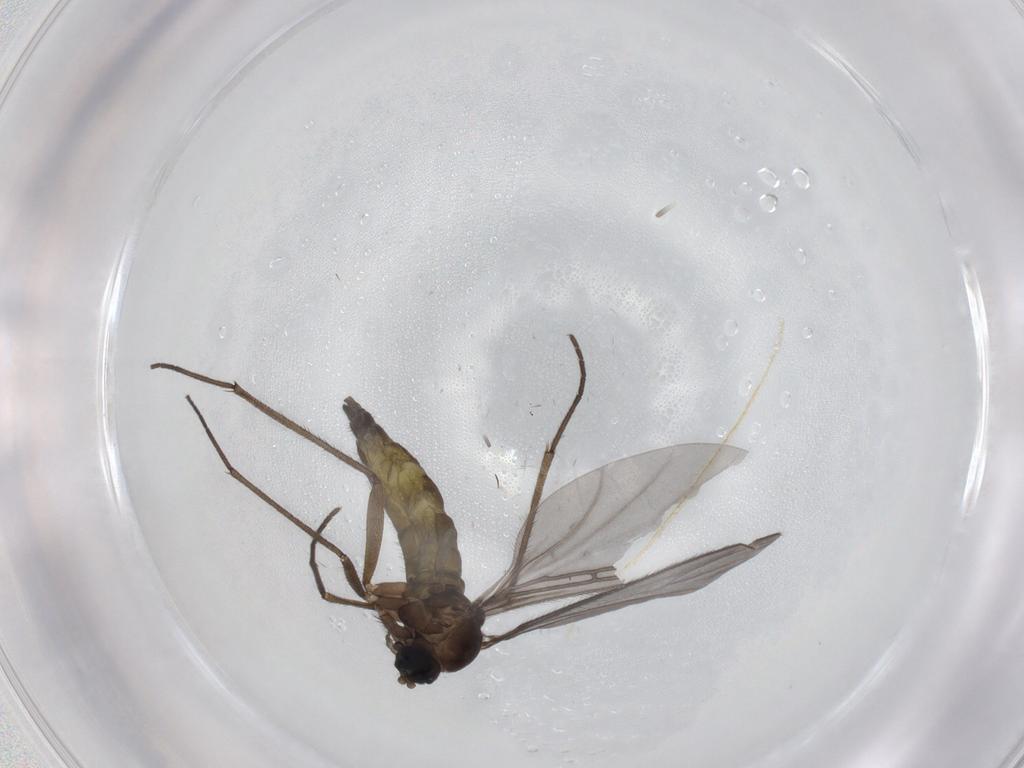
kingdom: Animalia
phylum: Arthropoda
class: Insecta
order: Diptera
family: Sciaridae
